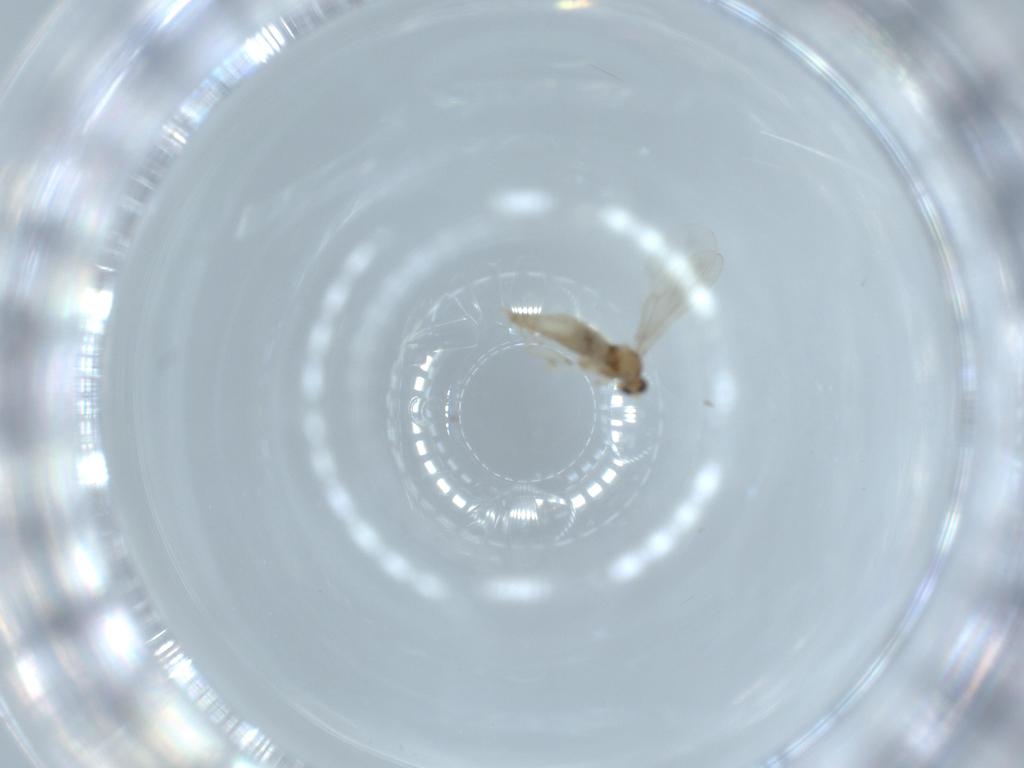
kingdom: Animalia
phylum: Arthropoda
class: Insecta
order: Diptera
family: Cecidomyiidae
